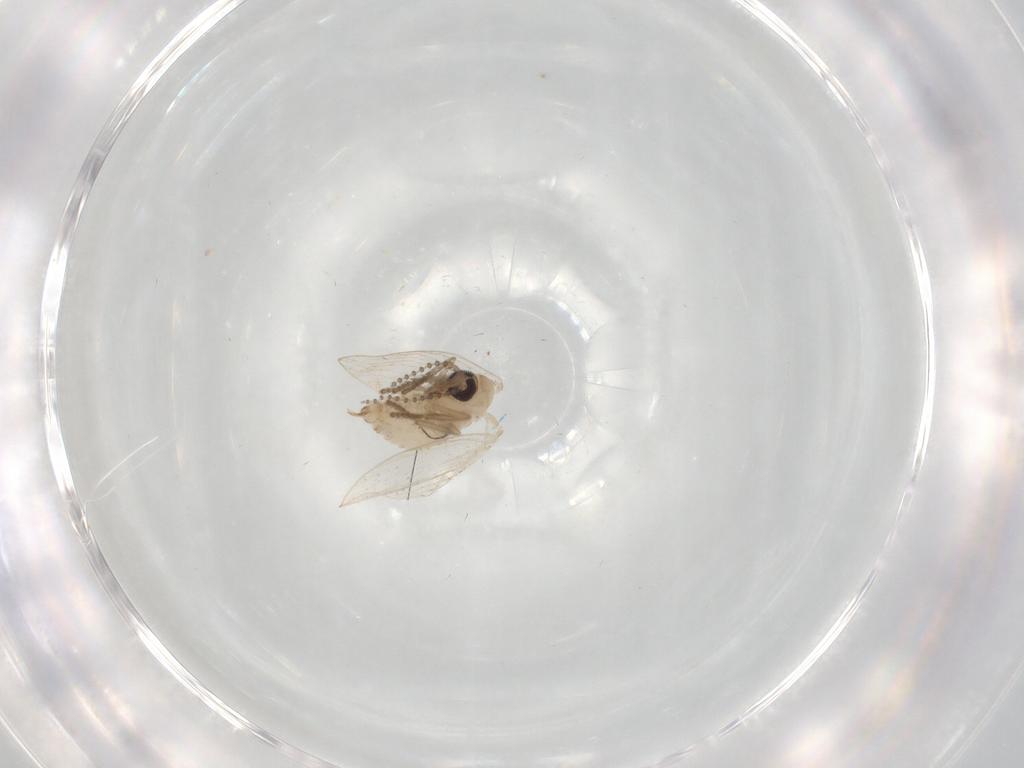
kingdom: Animalia
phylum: Arthropoda
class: Insecta
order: Diptera
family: Psychodidae
